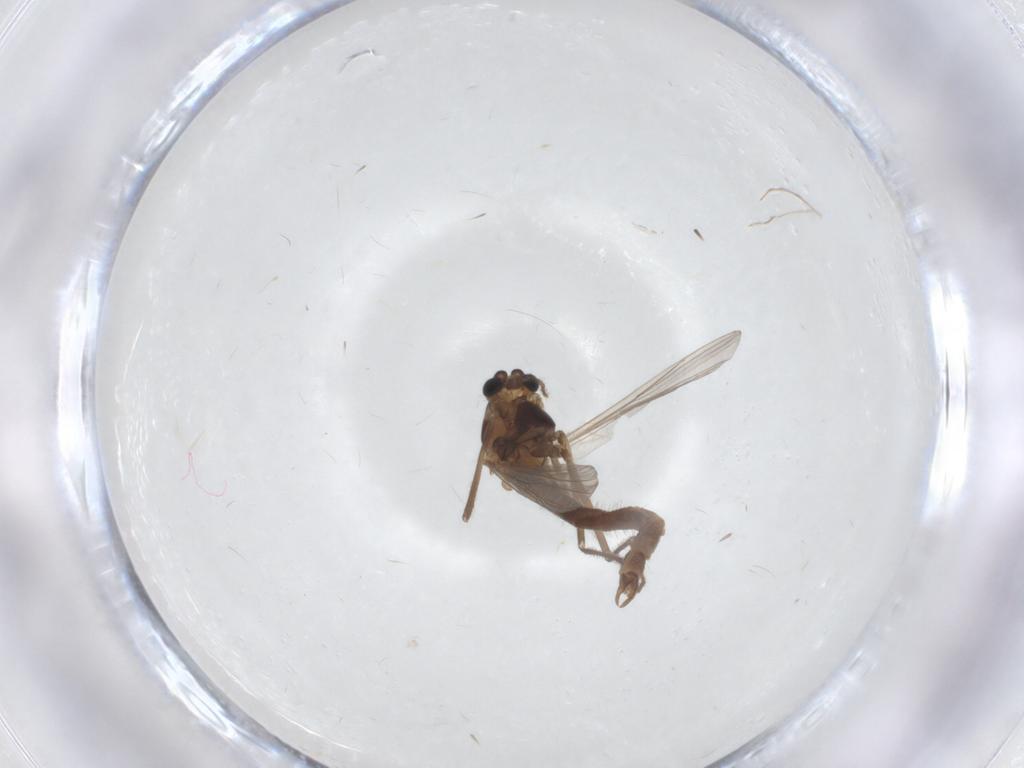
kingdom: Animalia
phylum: Arthropoda
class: Insecta
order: Diptera
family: Chironomidae
